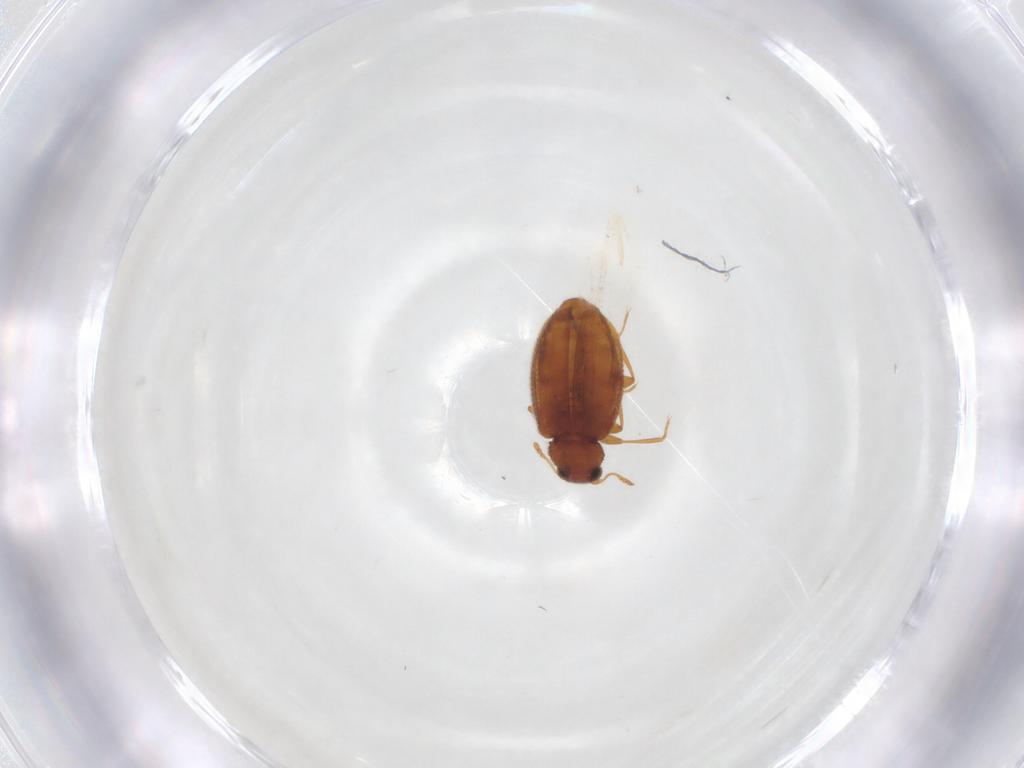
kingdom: Animalia
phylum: Arthropoda
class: Insecta
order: Coleoptera
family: Latridiidae
